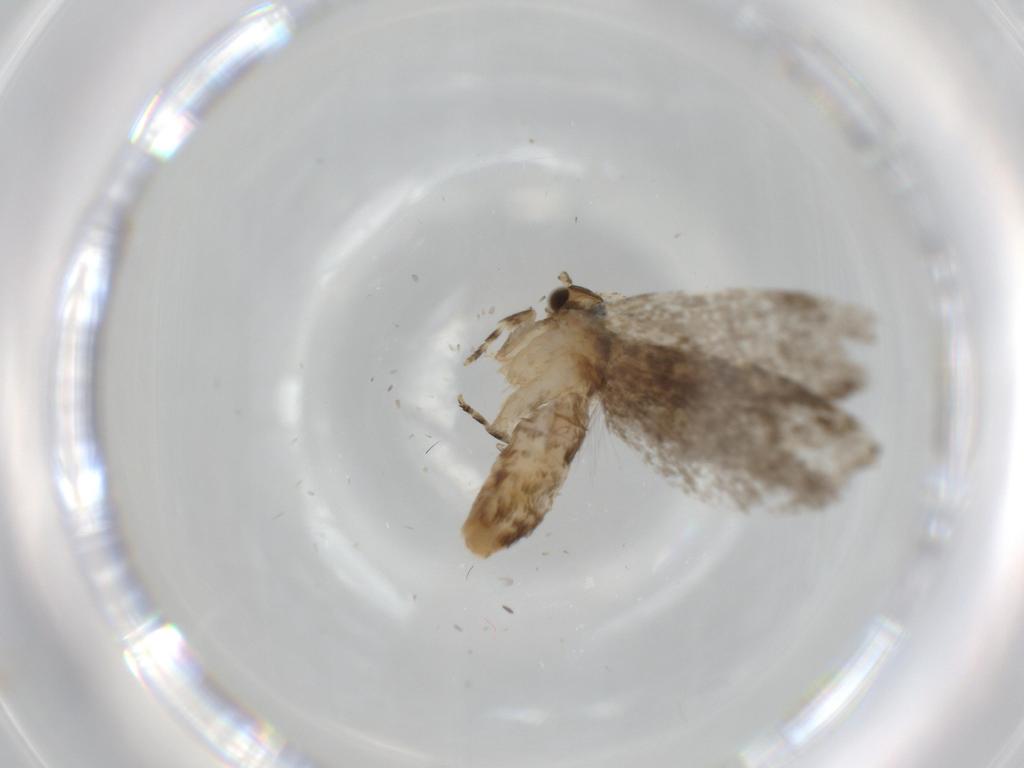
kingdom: Animalia
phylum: Arthropoda
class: Insecta
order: Lepidoptera
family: Tineidae
